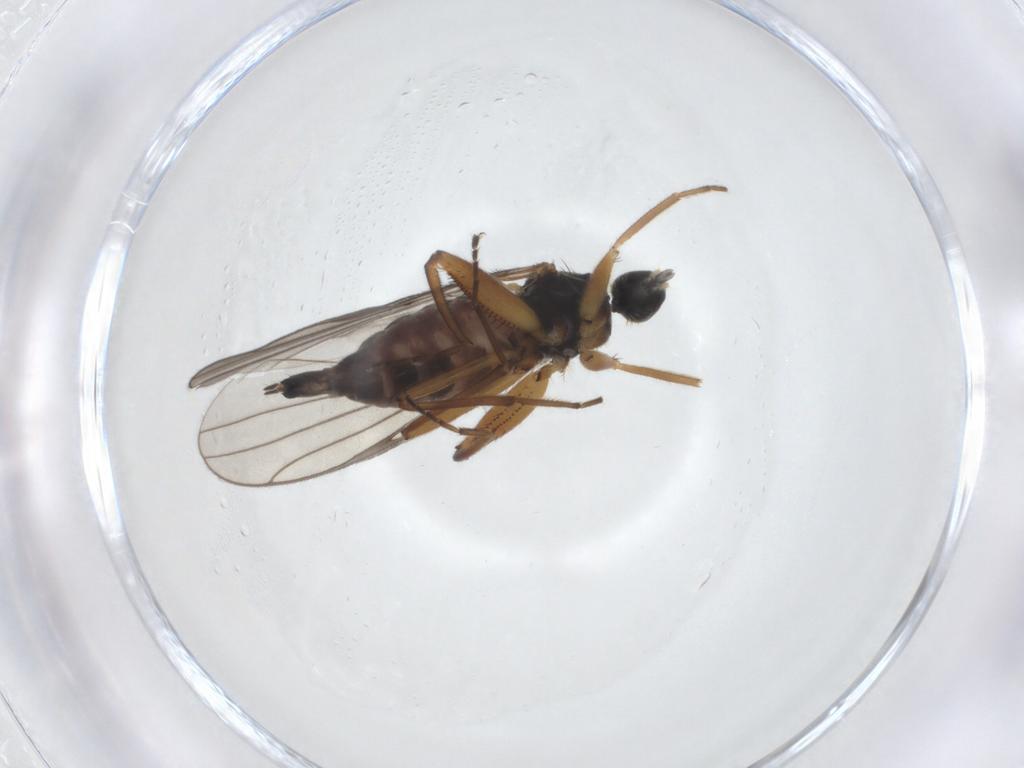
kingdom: Animalia
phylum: Arthropoda
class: Insecta
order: Diptera
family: Hybotidae
